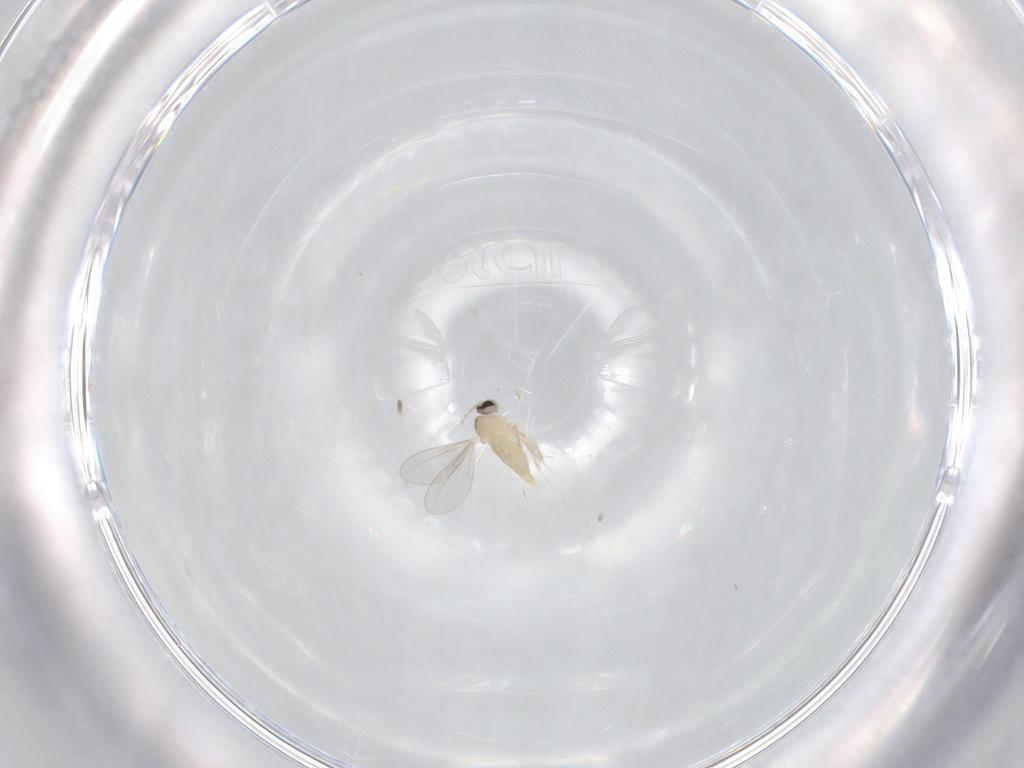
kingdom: Animalia
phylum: Arthropoda
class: Insecta
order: Diptera
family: Cecidomyiidae
